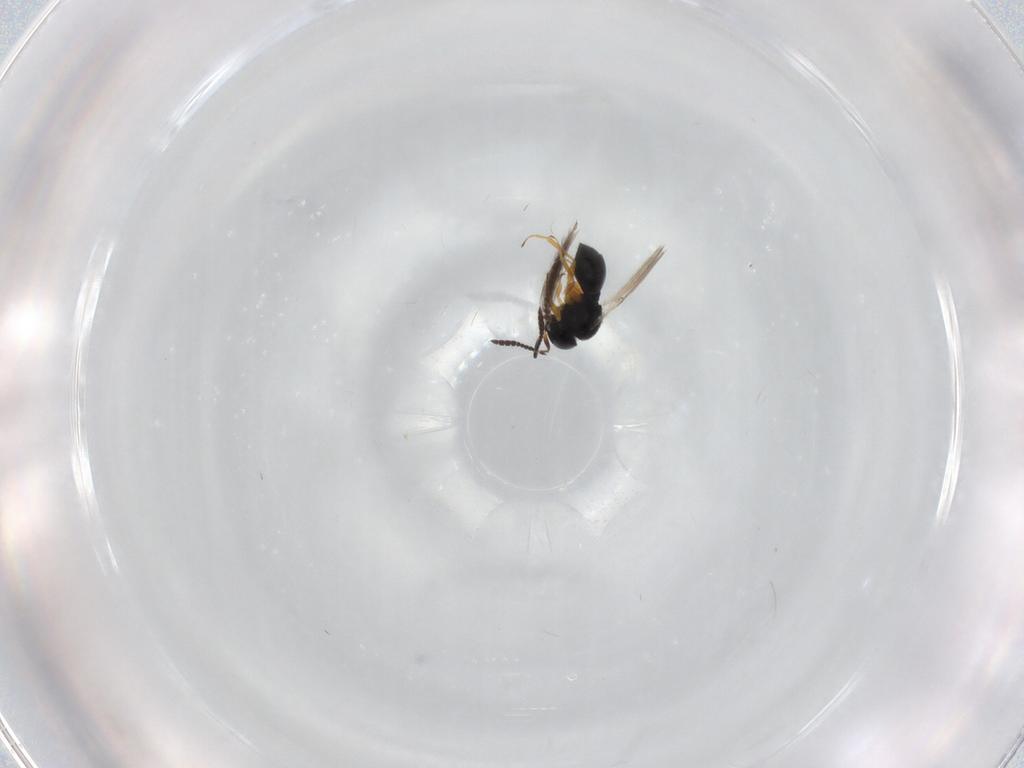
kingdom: Animalia
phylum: Arthropoda
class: Insecta
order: Hymenoptera
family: Scelionidae
